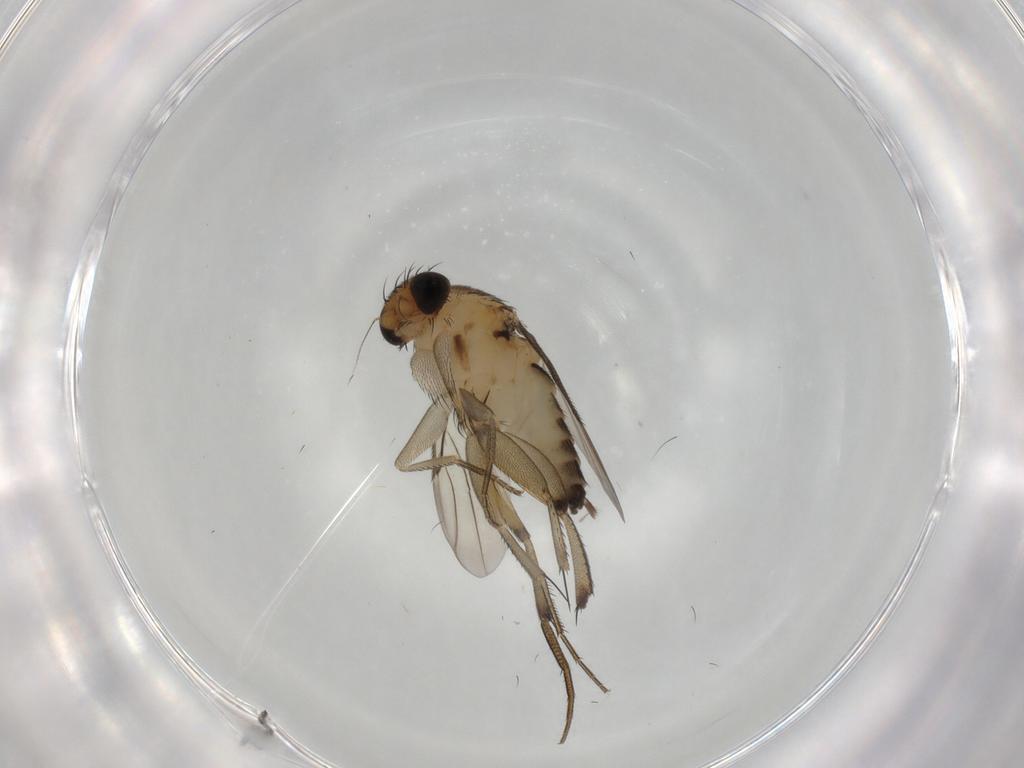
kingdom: Animalia
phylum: Arthropoda
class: Insecta
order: Diptera
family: Phoridae
